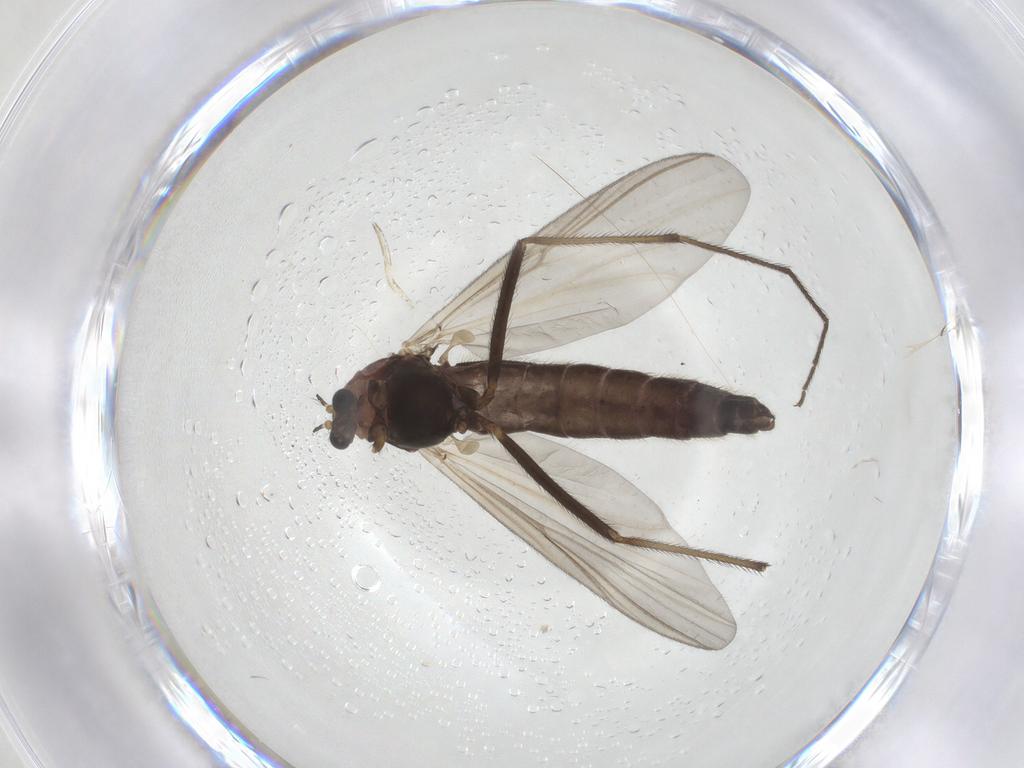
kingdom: Animalia
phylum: Arthropoda
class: Insecta
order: Diptera
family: Chironomidae
